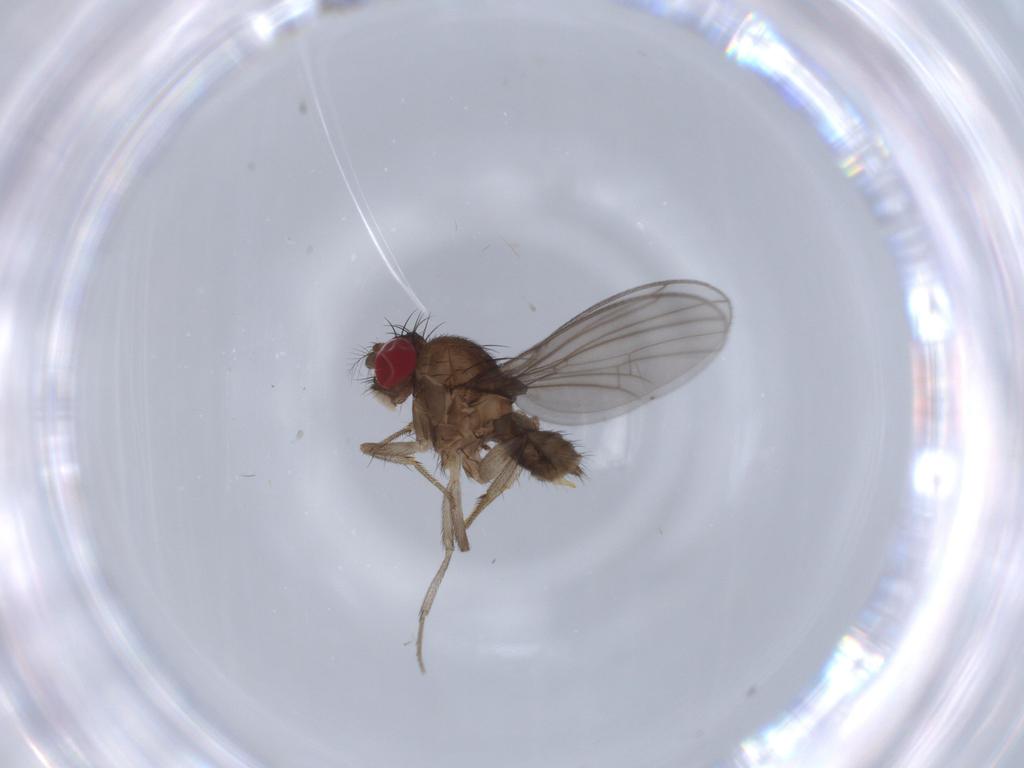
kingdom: Animalia
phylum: Arthropoda
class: Insecta
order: Diptera
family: Drosophilidae
